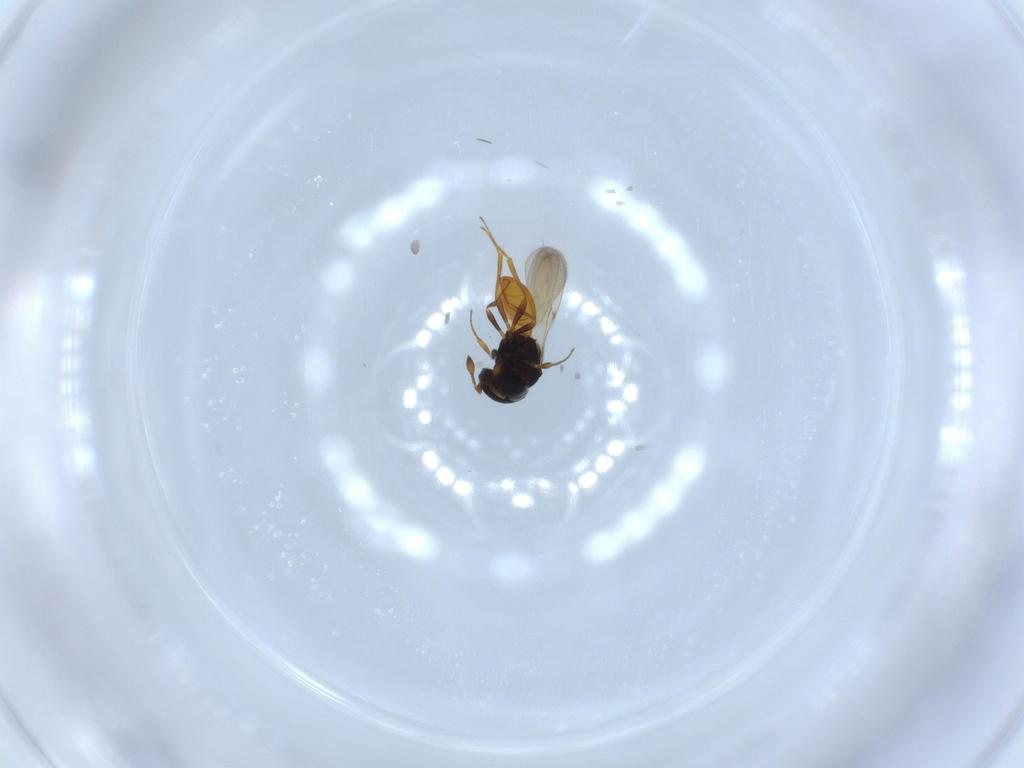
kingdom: Animalia
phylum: Arthropoda
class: Insecta
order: Hymenoptera
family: Scelionidae
